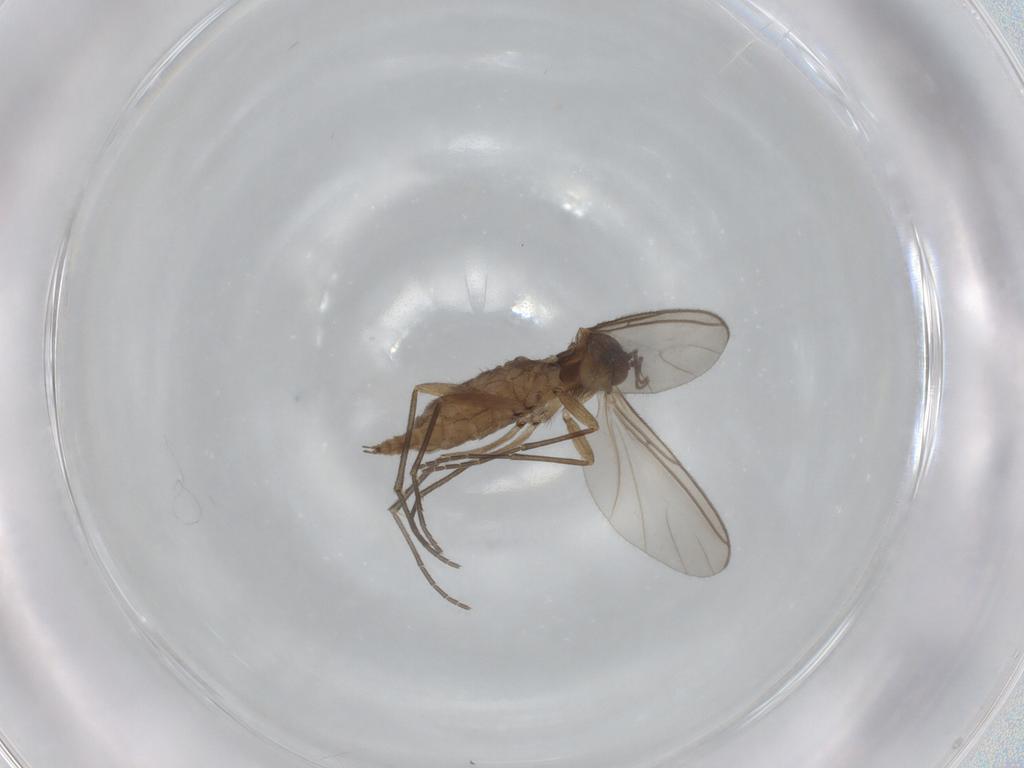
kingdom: Animalia
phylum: Arthropoda
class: Insecta
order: Diptera
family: Sciaridae
